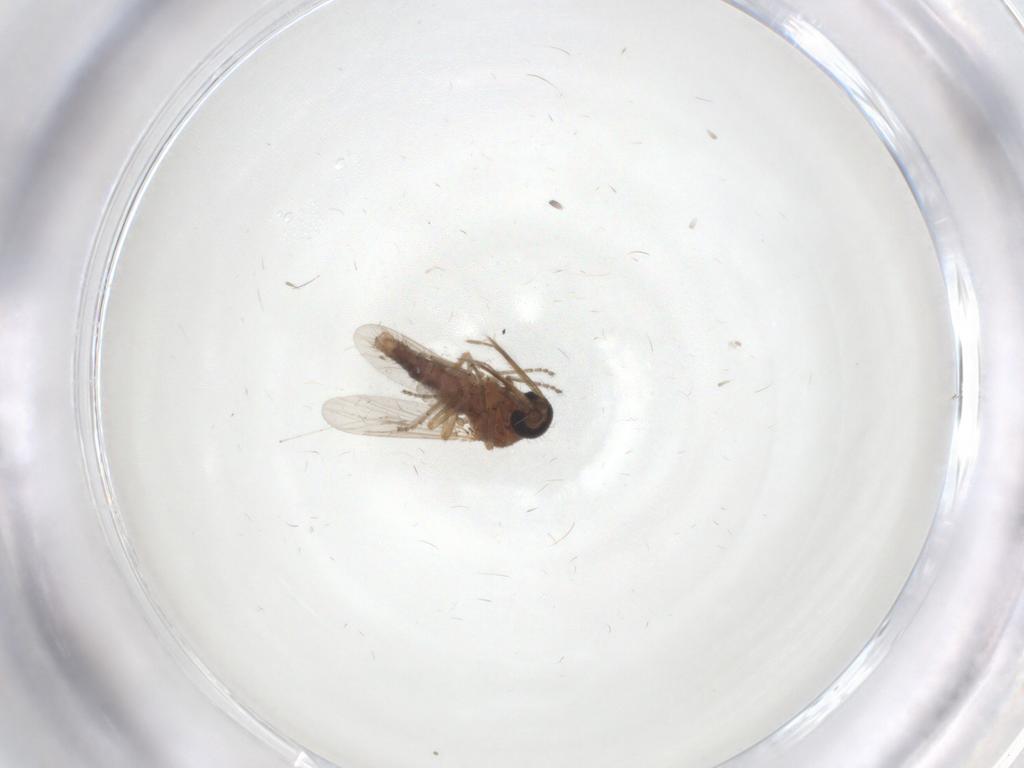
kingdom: Animalia
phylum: Arthropoda
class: Insecta
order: Diptera
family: Ceratopogonidae
